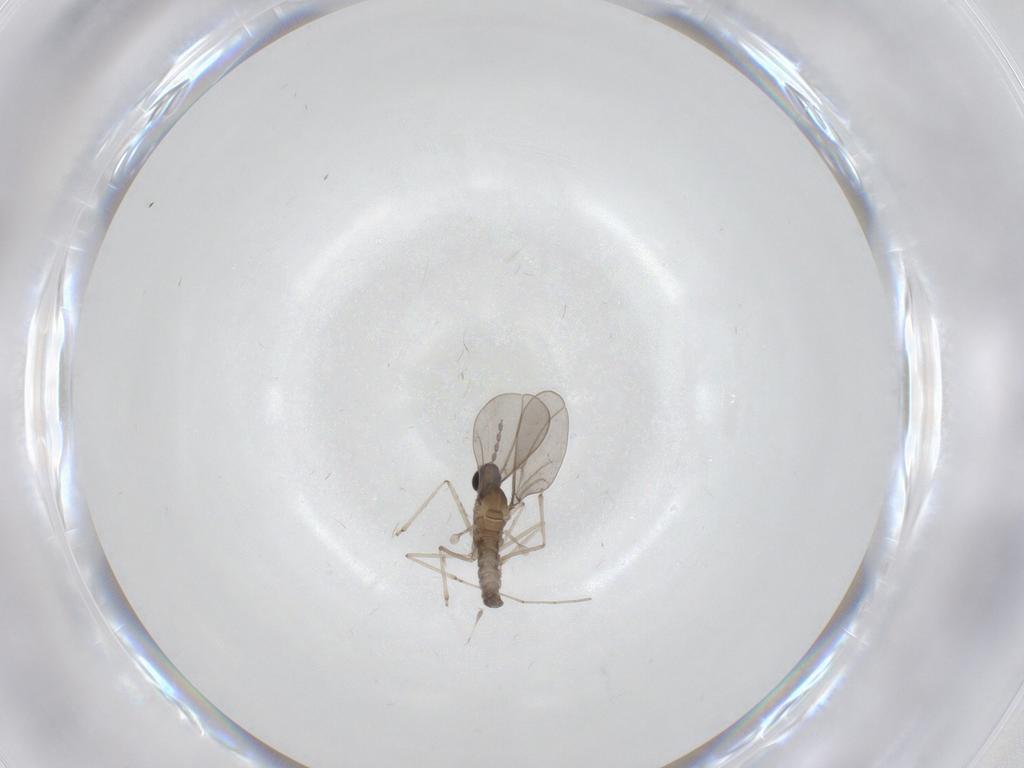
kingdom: Animalia
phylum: Arthropoda
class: Insecta
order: Diptera
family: Cecidomyiidae
